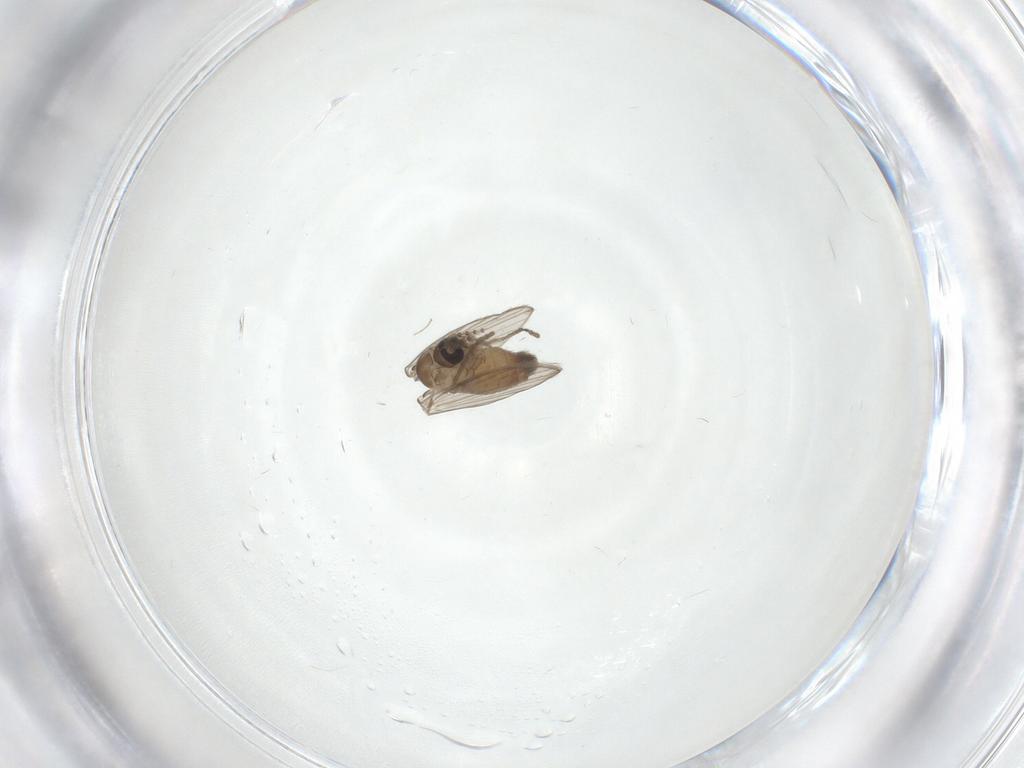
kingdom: Animalia
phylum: Arthropoda
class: Insecta
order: Diptera
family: Psychodidae
